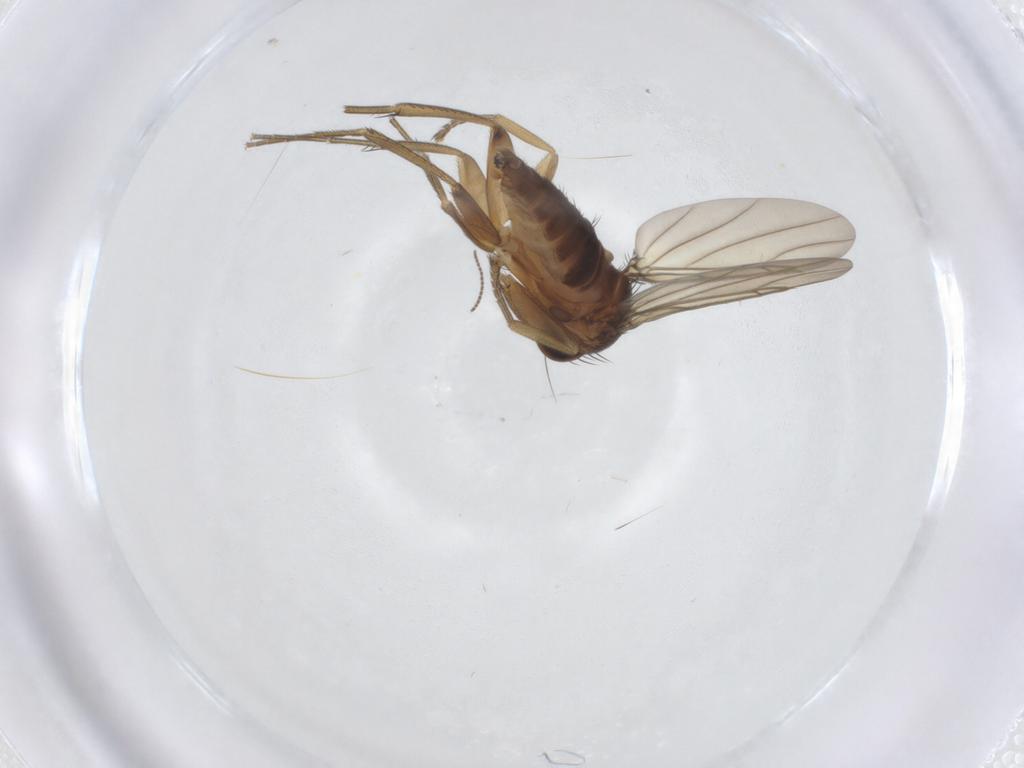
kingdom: Animalia
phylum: Arthropoda
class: Insecta
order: Diptera
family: Phoridae
